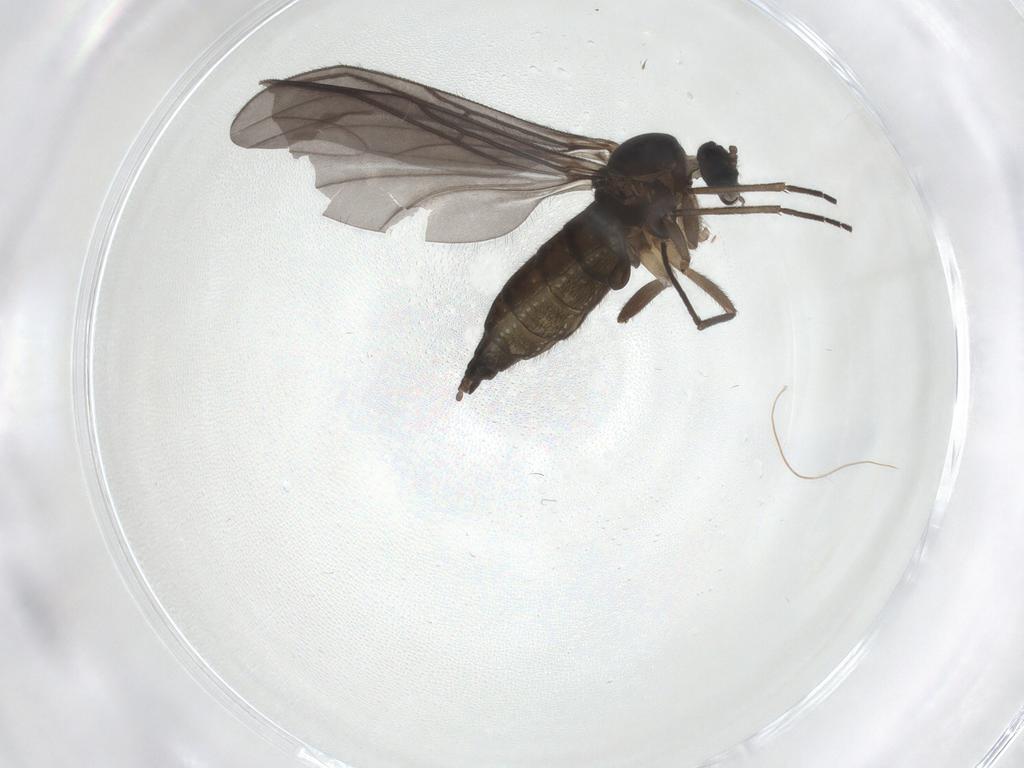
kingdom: Animalia
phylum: Arthropoda
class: Insecta
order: Diptera
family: Sciaridae
